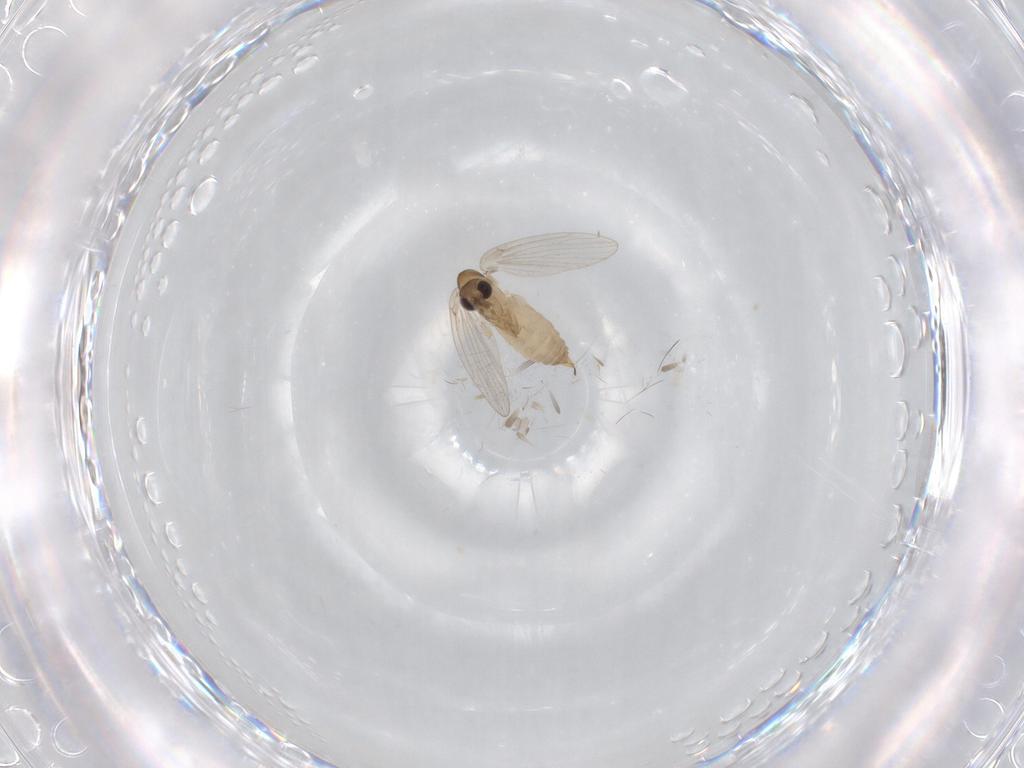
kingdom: Animalia
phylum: Arthropoda
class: Insecta
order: Diptera
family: Psychodidae
